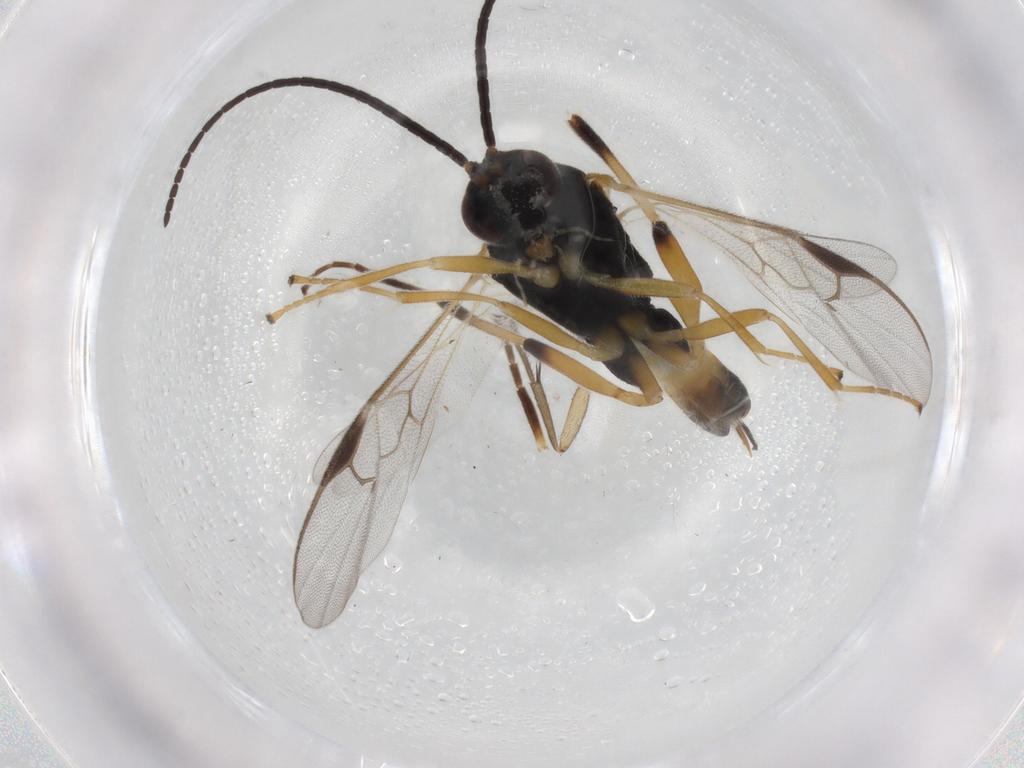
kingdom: Animalia
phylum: Arthropoda
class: Insecta
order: Hymenoptera
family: Braconidae
